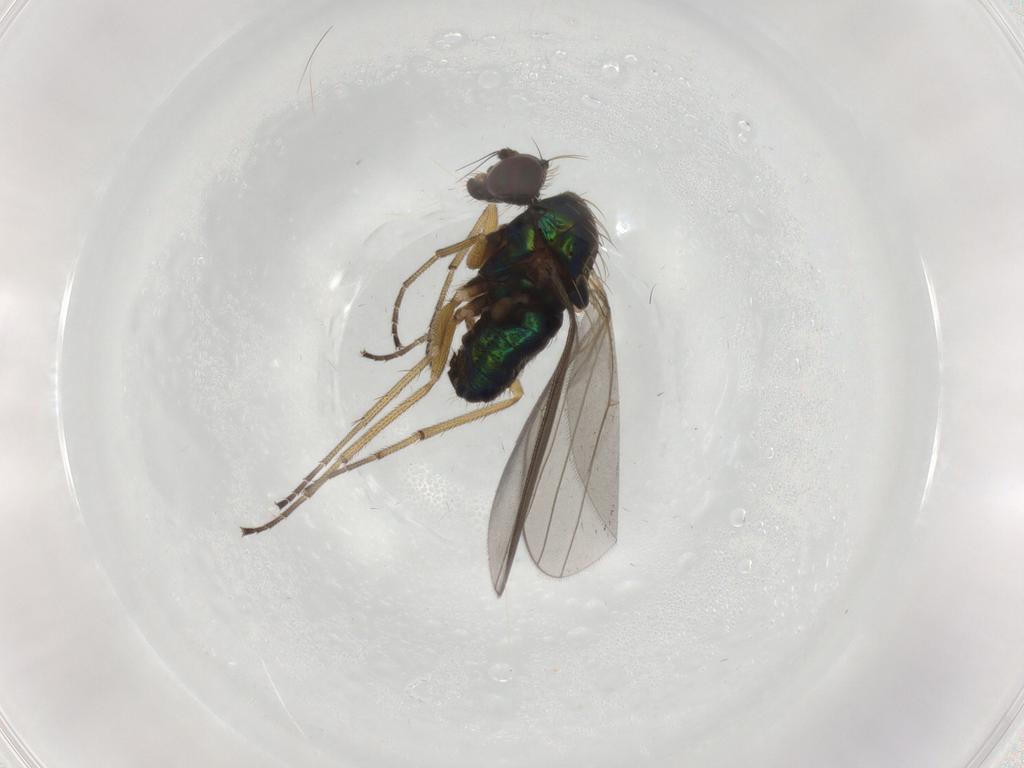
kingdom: Animalia
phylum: Arthropoda
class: Insecta
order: Diptera
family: Dolichopodidae
